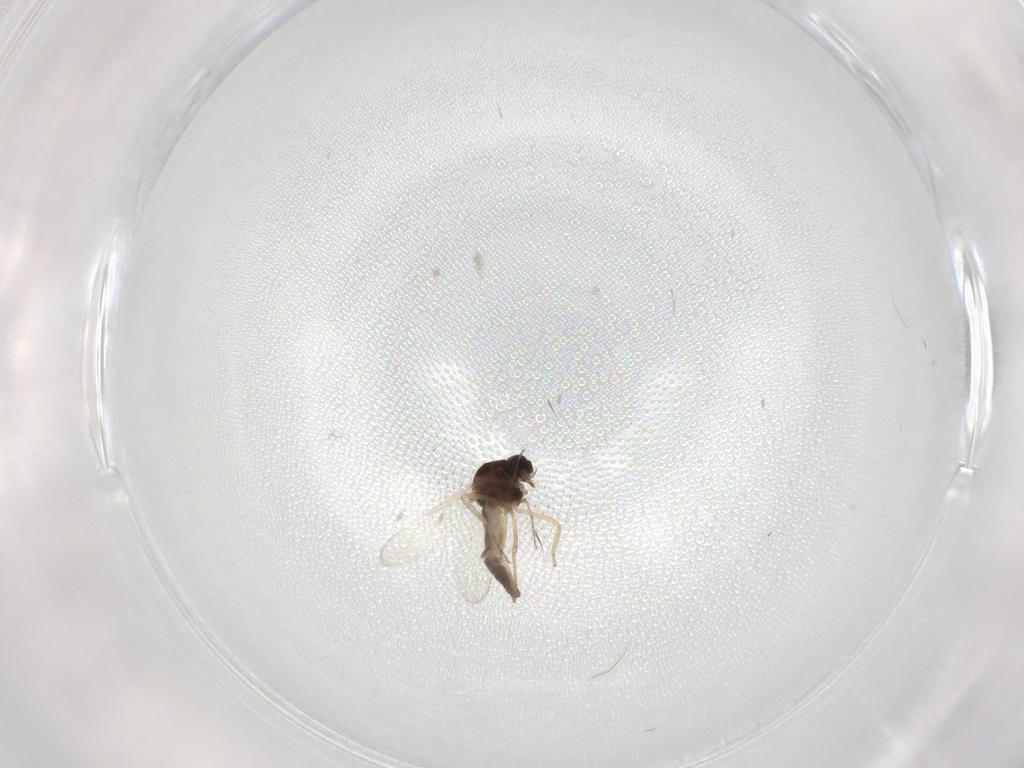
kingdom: Animalia
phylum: Arthropoda
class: Insecta
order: Diptera
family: Ceratopogonidae
